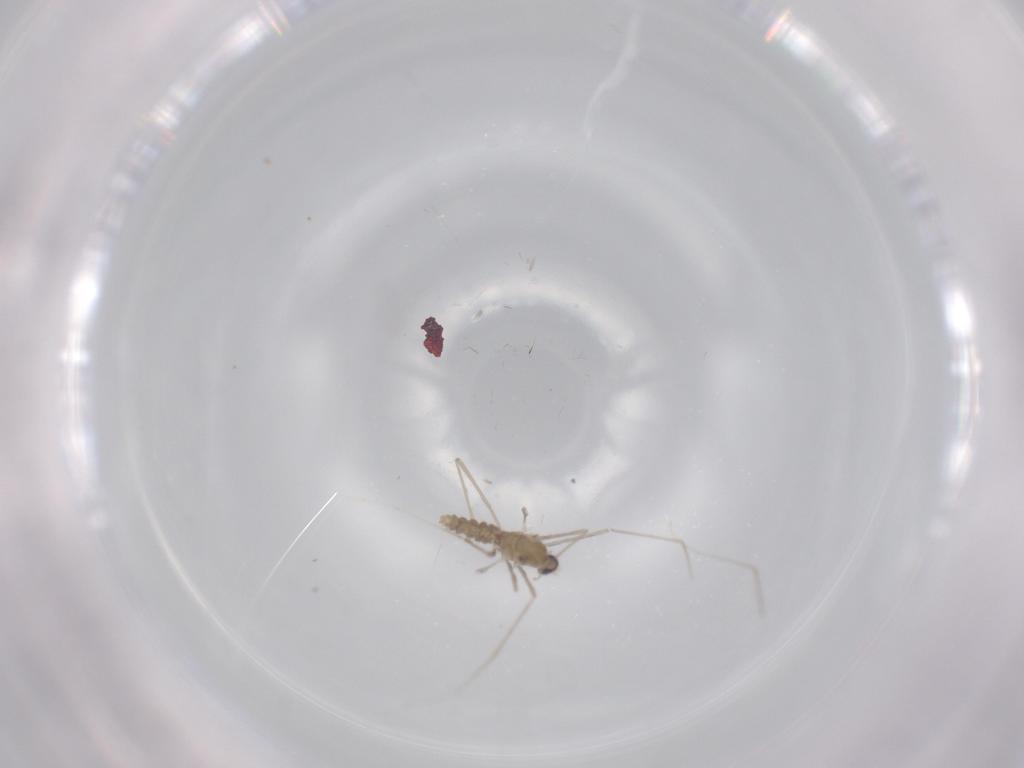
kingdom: Animalia
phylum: Arthropoda
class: Insecta
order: Diptera
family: Cecidomyiidae
